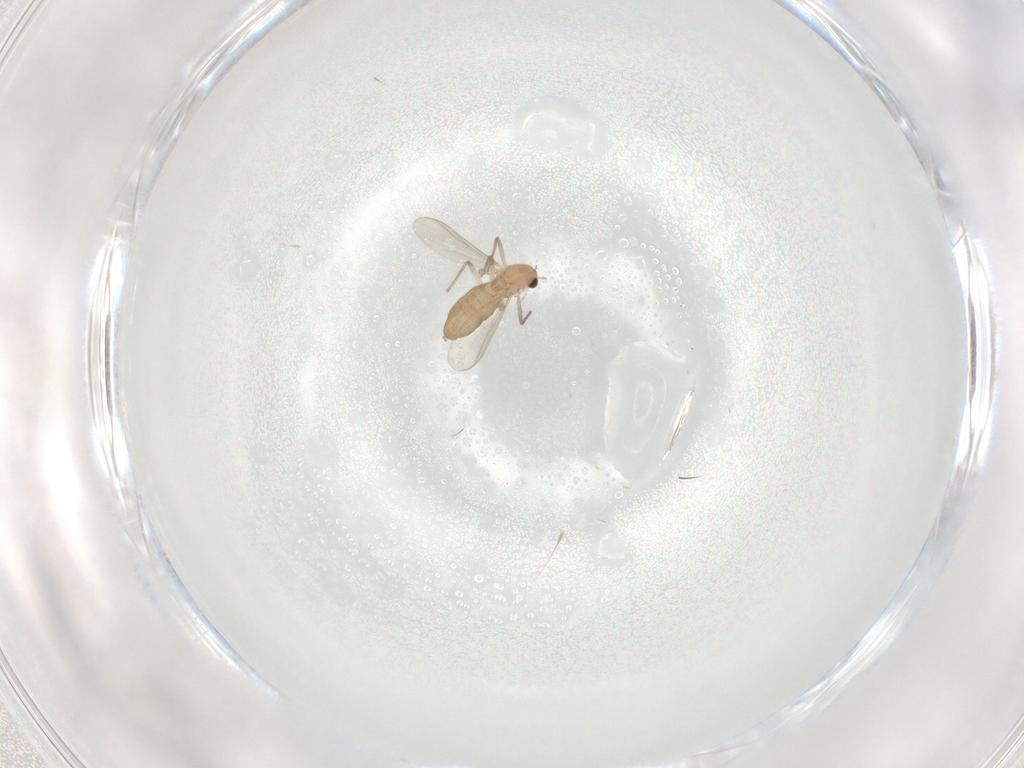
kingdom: Animalia
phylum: Arthropoda
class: Insecta
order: Diptera
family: Chironomidae
